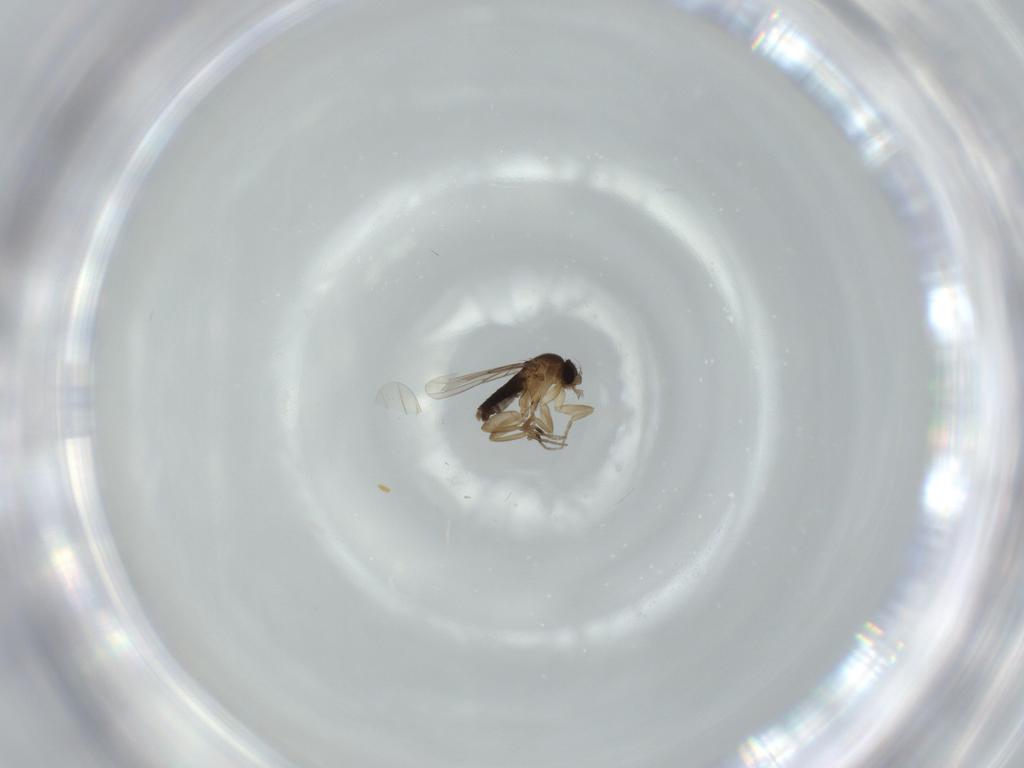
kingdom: Animalia
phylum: Arthropoda
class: Insecta
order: Diptera
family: Phoridae
